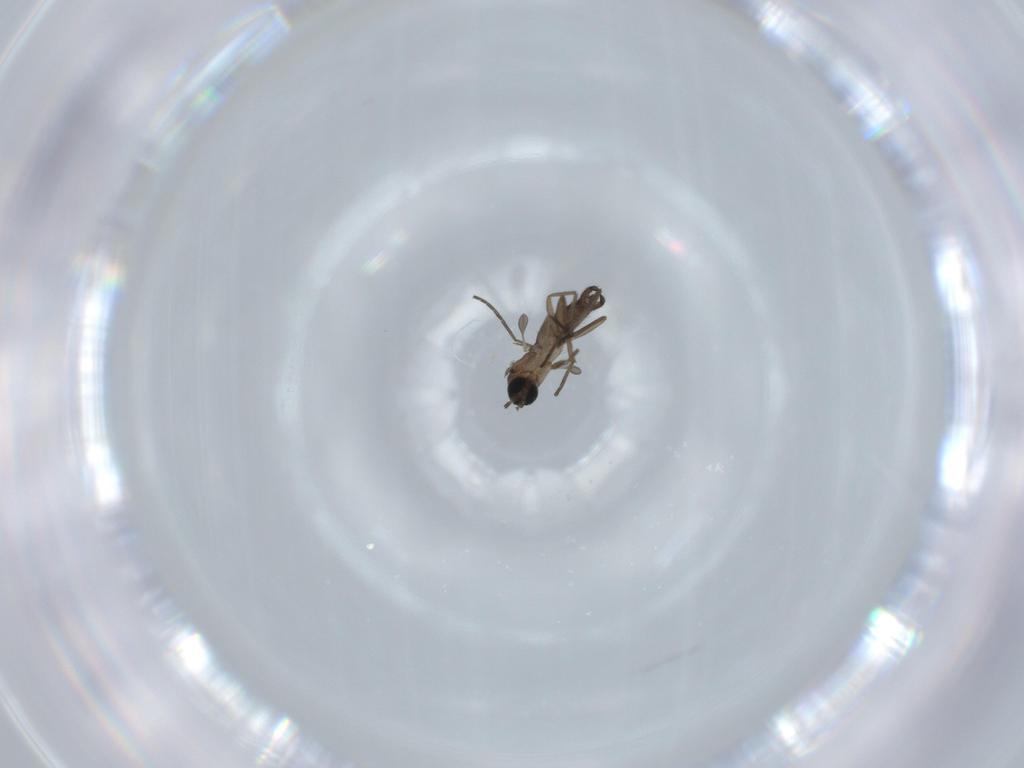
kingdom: Animalia
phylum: Arthropoda
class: Insecta
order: Diptera
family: Sciaridae
